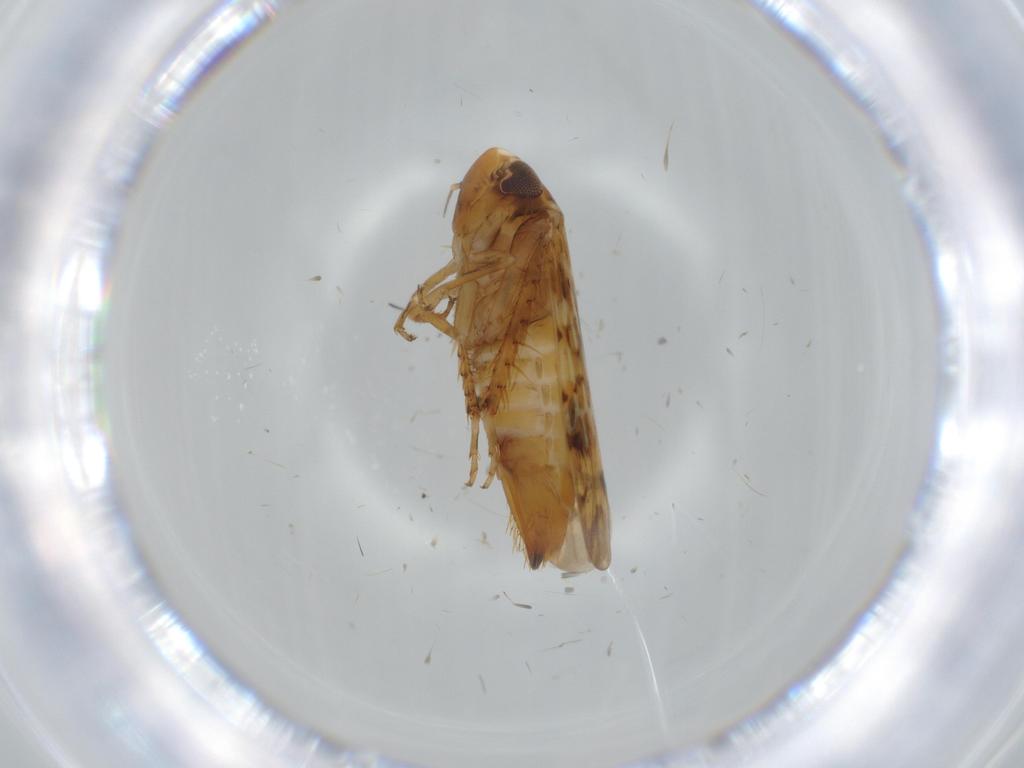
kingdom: Animalia
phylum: Arthropoda
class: Insecta
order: Hemiptera
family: Cicadellidae
